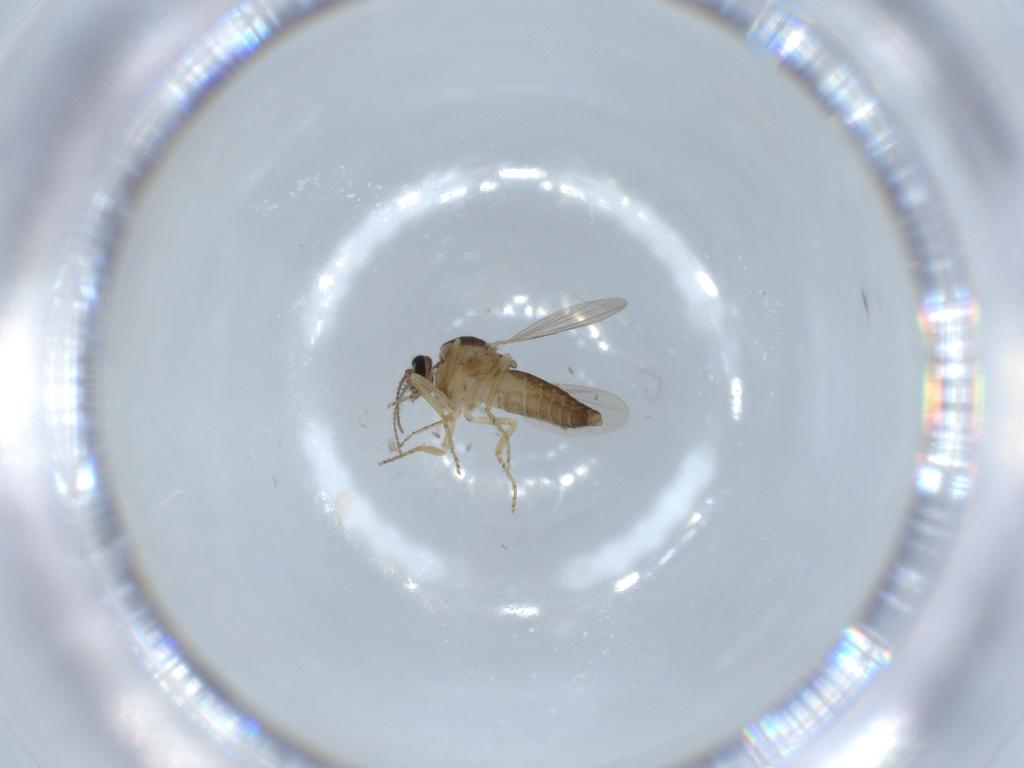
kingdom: Animalia
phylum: Arthropoda
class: Insecta
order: Diptera
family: Ceratopogonidae
